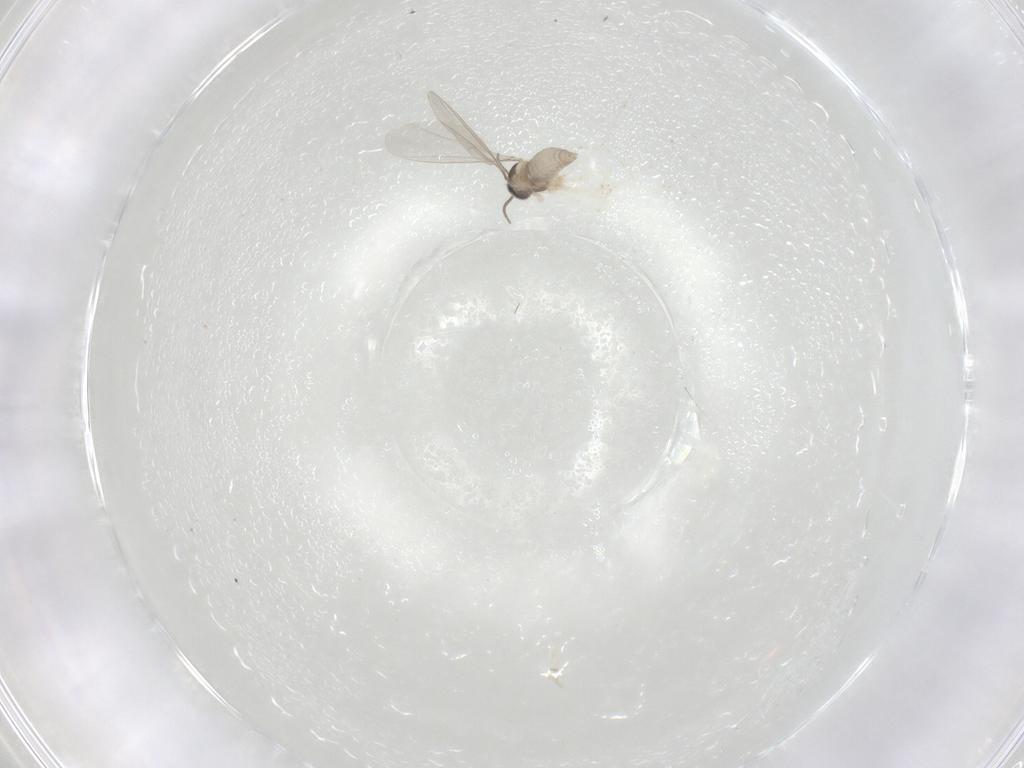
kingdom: Animalia
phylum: Arthropoda
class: Insecta
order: Diptera
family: Cecidomyiidae
